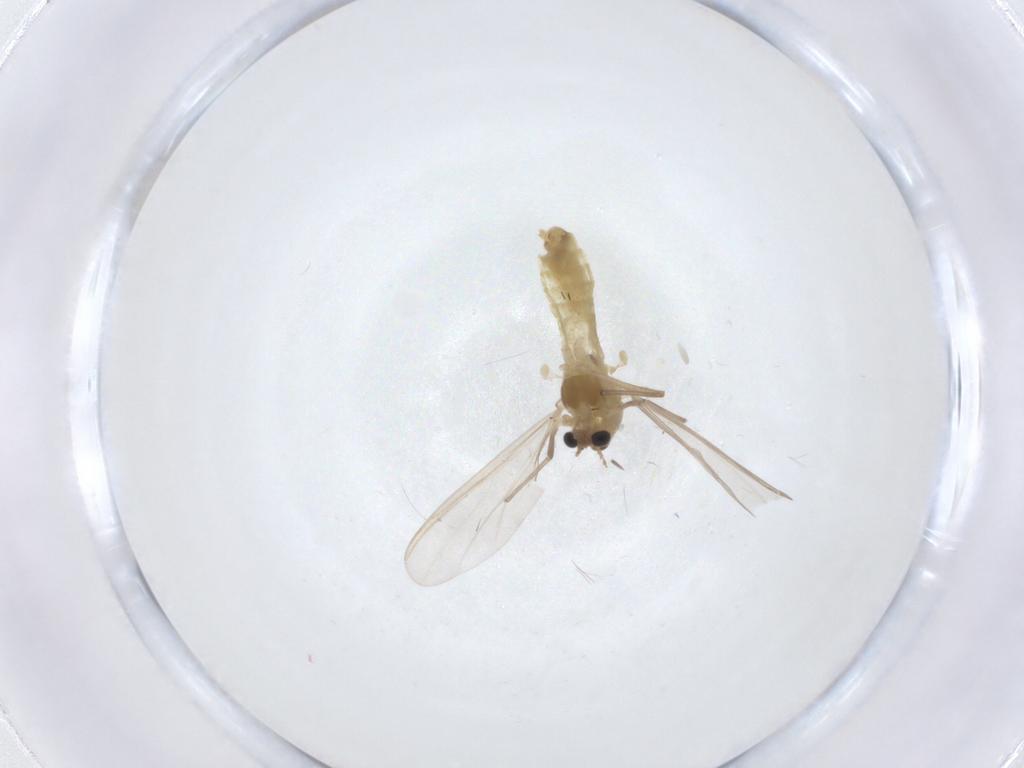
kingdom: Animalia
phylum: Arthropoda
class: Insecta
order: Diptera
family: Chironomidae
